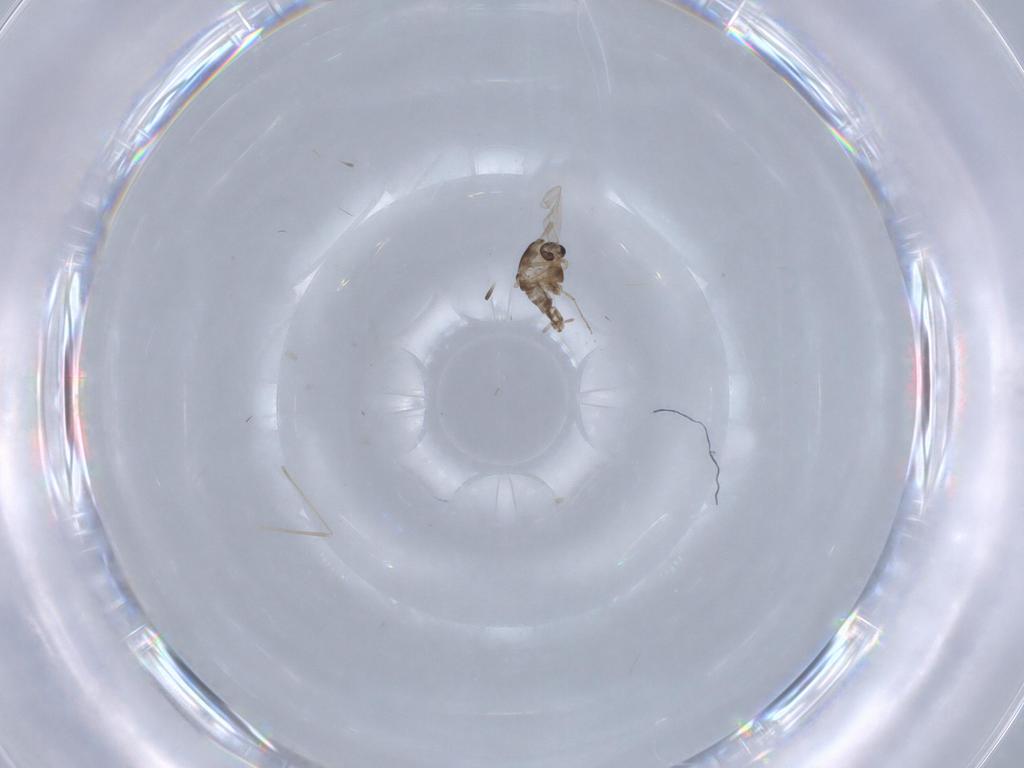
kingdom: Animalia
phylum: Arthropoda
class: Insecta
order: Diptera
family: Chironomidae
